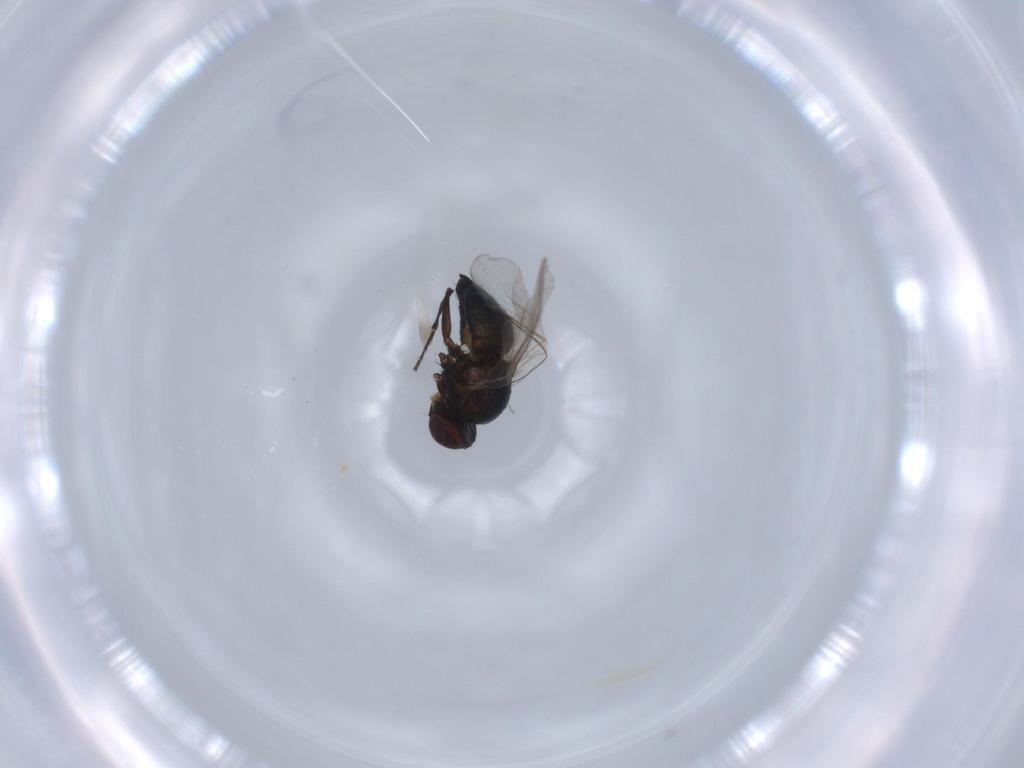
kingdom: Animalia
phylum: Arthropoda
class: Insecta
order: Diptera
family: Agromyzidae
